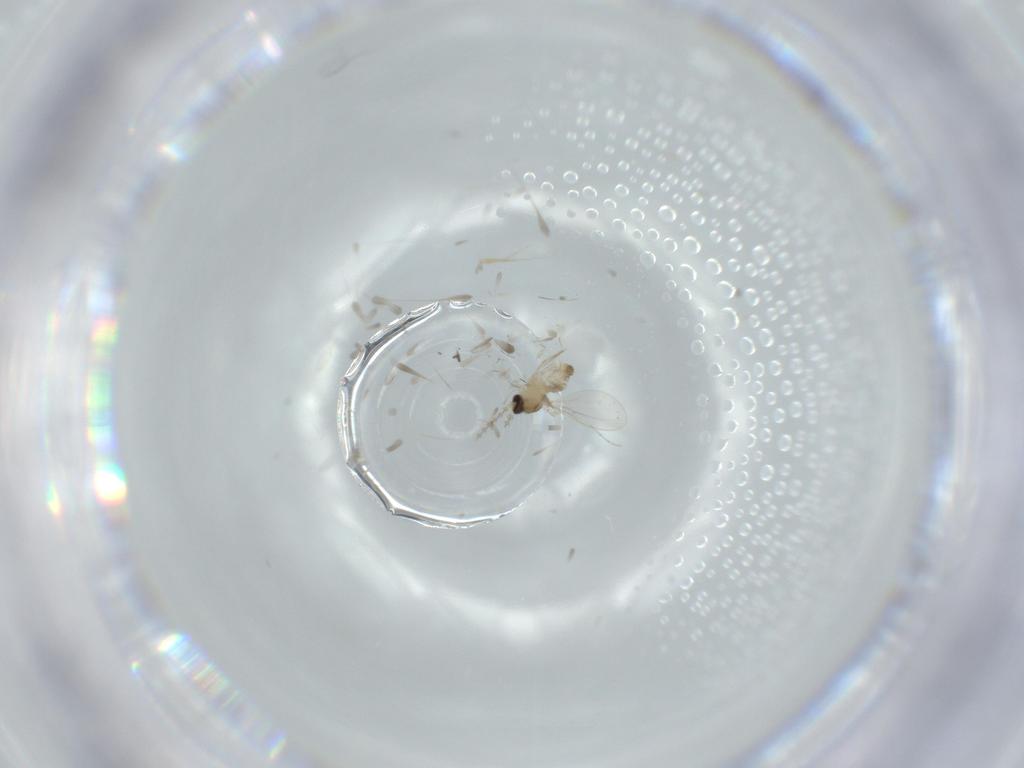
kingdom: Animalia
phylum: Arthropoda
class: Insecta
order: Diptera
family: Cecidomyiidae
